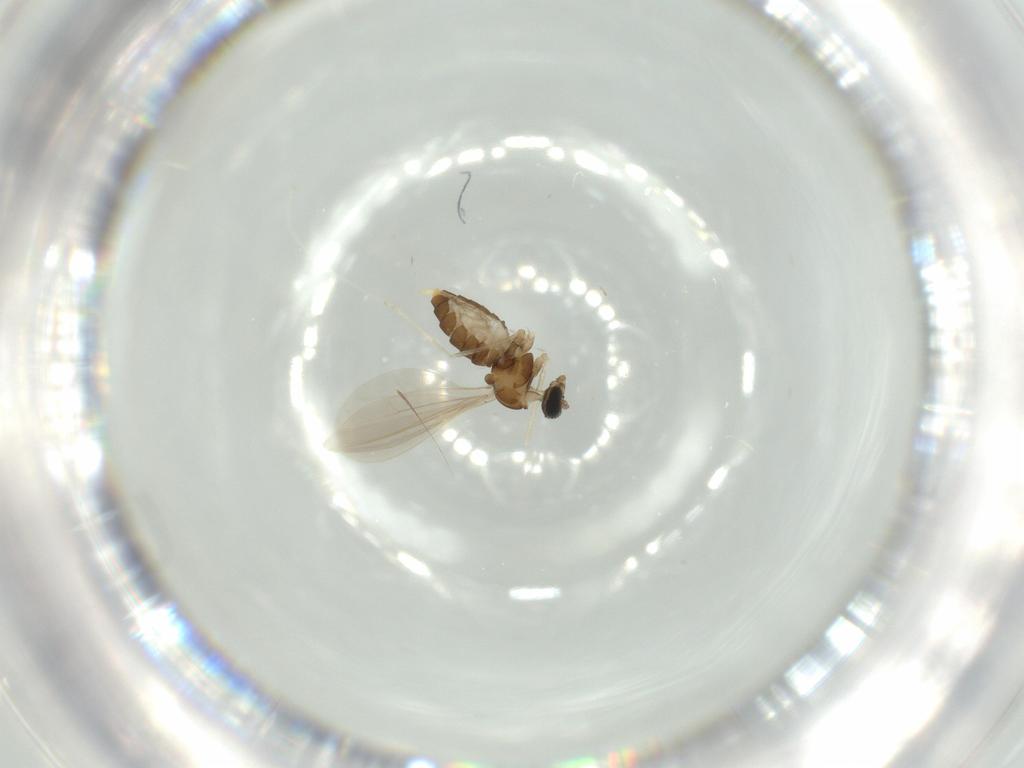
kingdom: Animalia
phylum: Arthropoda
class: Insecta
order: Diptera
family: Cecidomyiidae
